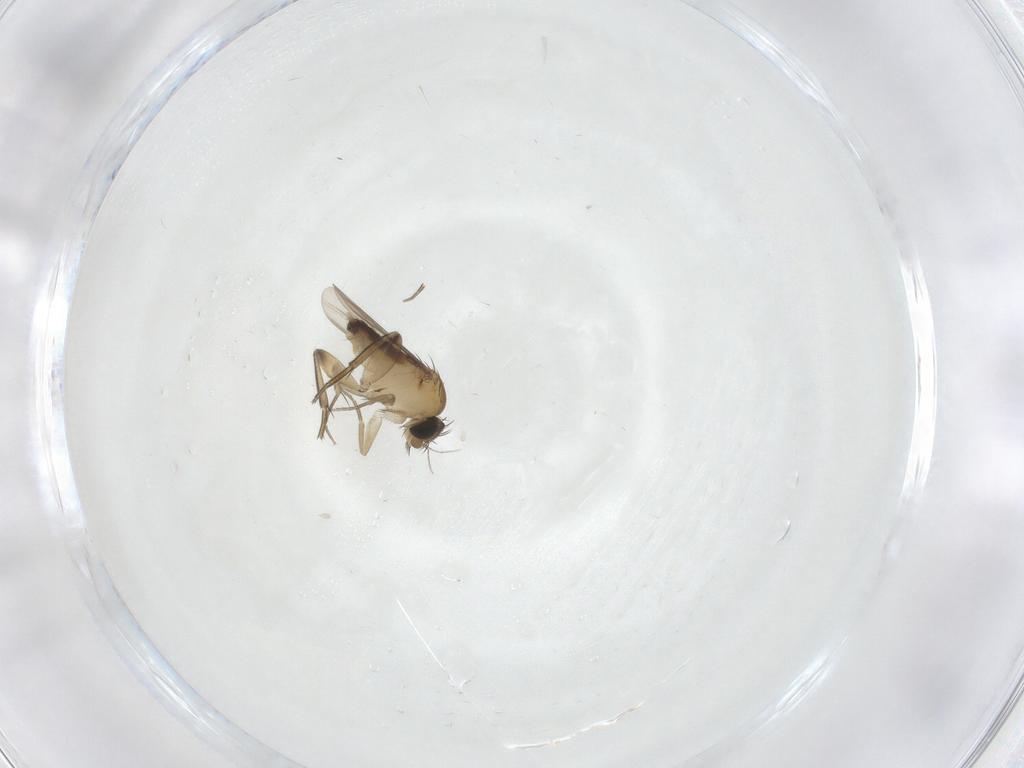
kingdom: Animalia
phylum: Arthropoda
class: Insecta
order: Diptera
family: Phoridae
